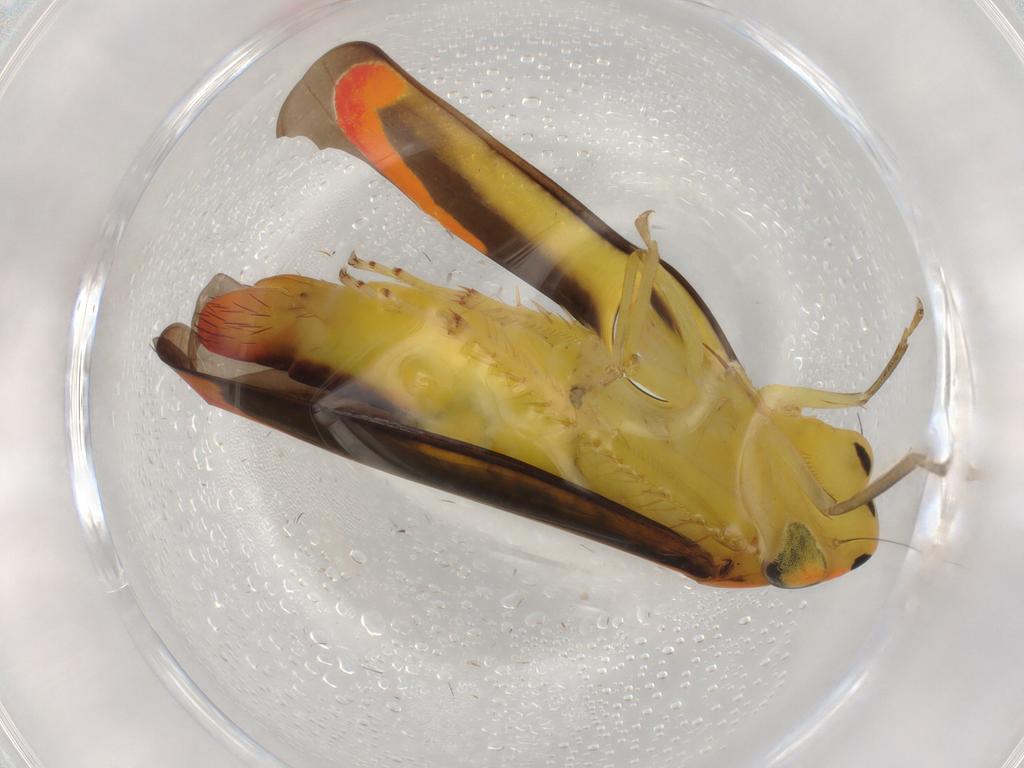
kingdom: Animalia
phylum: Arthropoda
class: Insecta
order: Hemiptera
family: Cicadellidae
